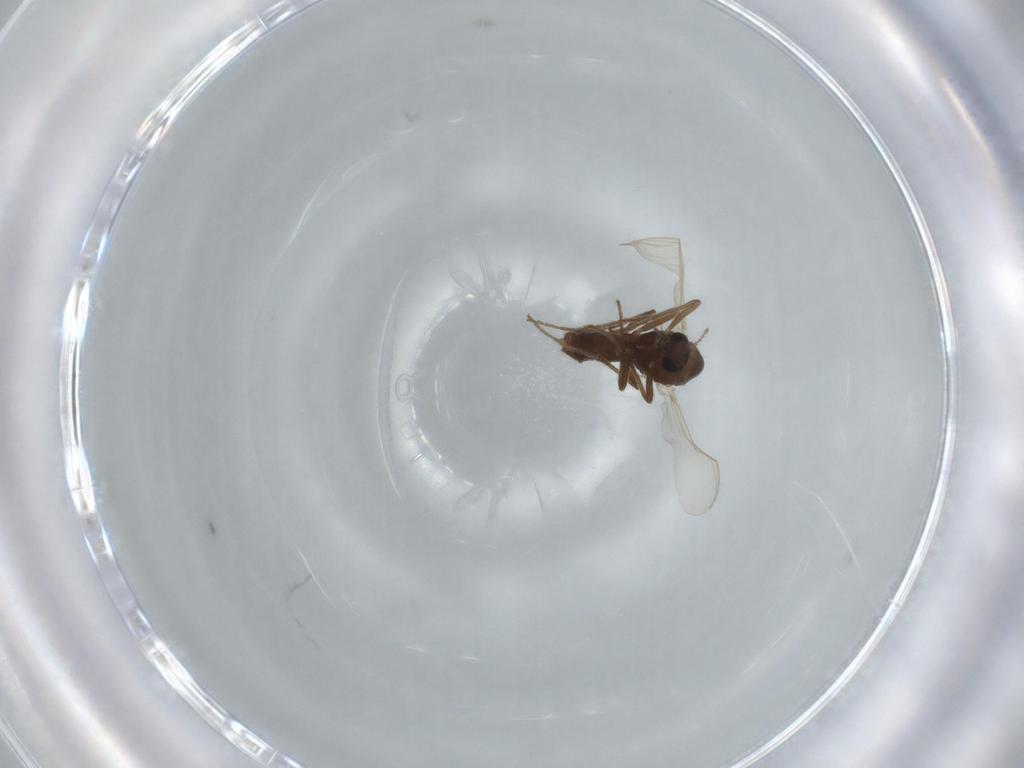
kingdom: Animalia
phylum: Arthropoda
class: Insecta
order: Diptera
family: Chironomidae
